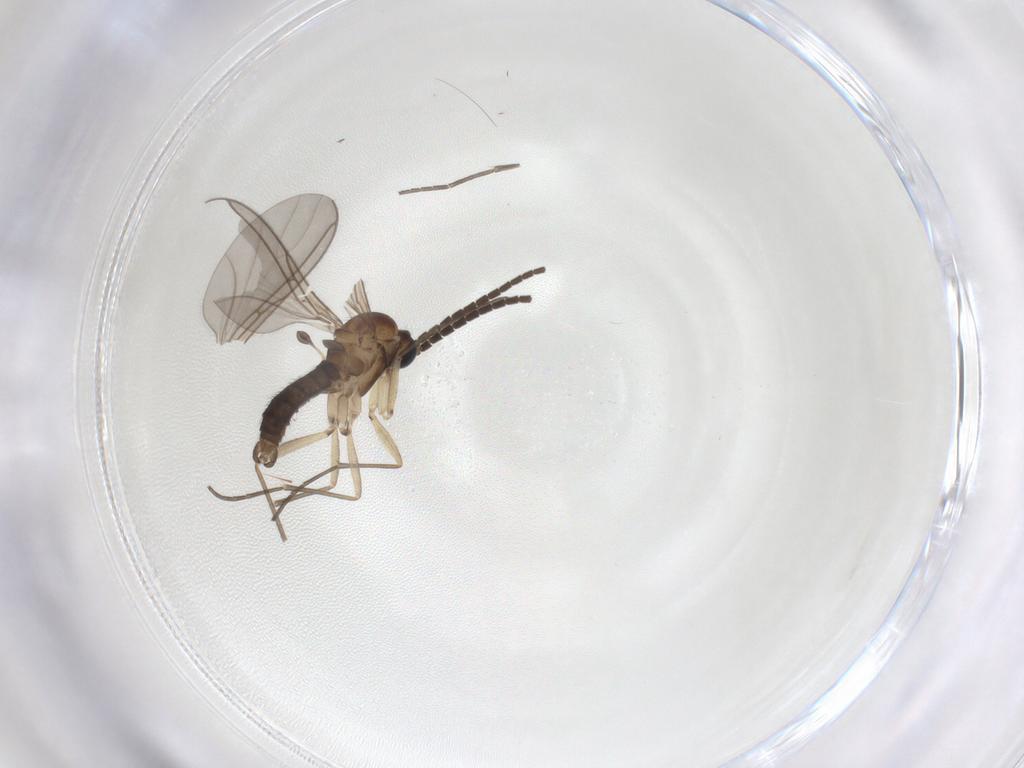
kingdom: Animalia
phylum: Arthropoda
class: Insecta
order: Diptera
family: Sciaridae
